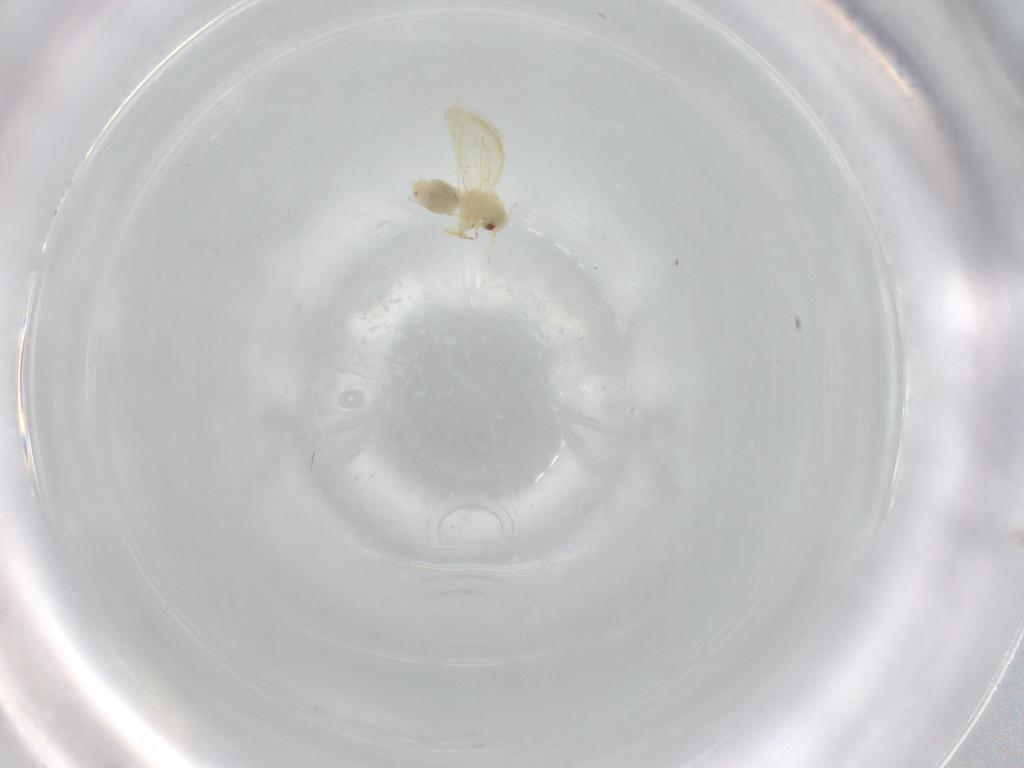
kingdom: Animalia
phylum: Arthropoda
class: Insecta
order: Hemiptera
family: Aleyrodidae
